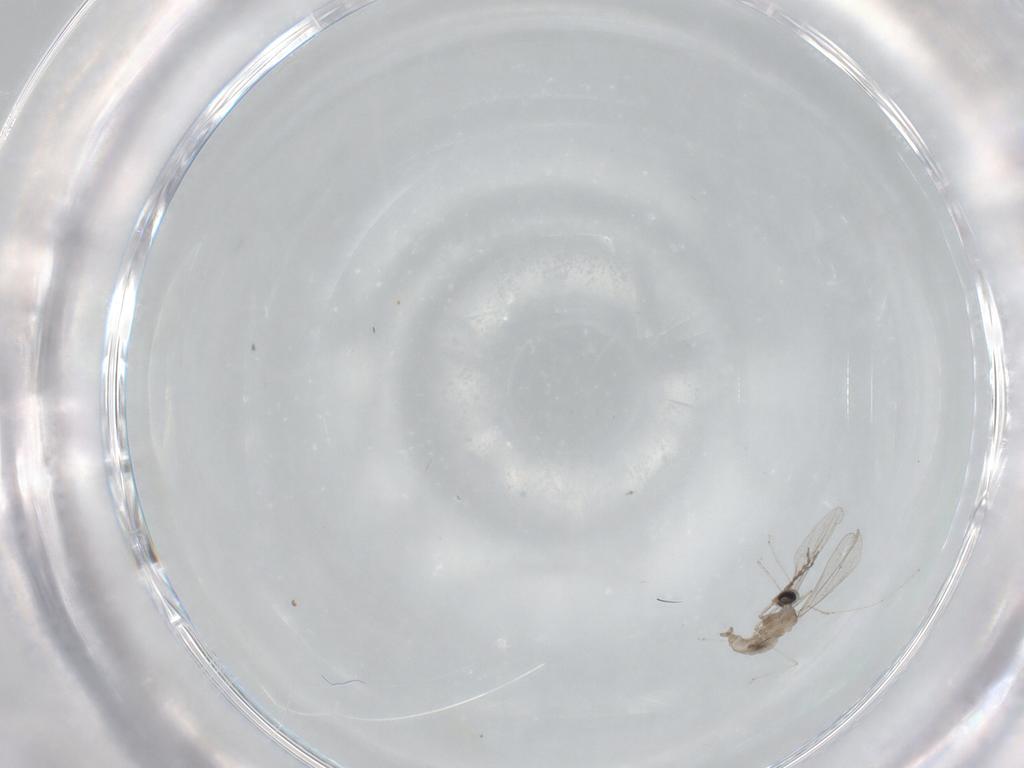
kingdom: Animalia
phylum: Arthropoda
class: Insecta
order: Diptera
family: Cecidomyiidae
